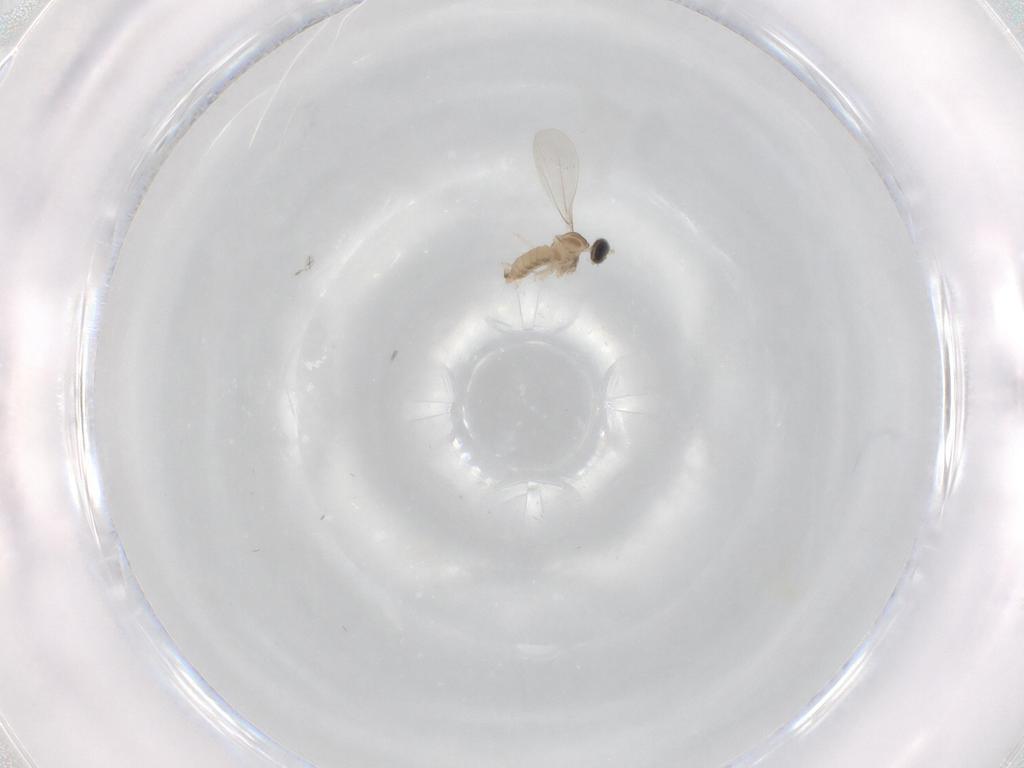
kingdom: Animalia
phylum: Arthropoda
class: Insecta
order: Diptera
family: Cecidomyiidae
